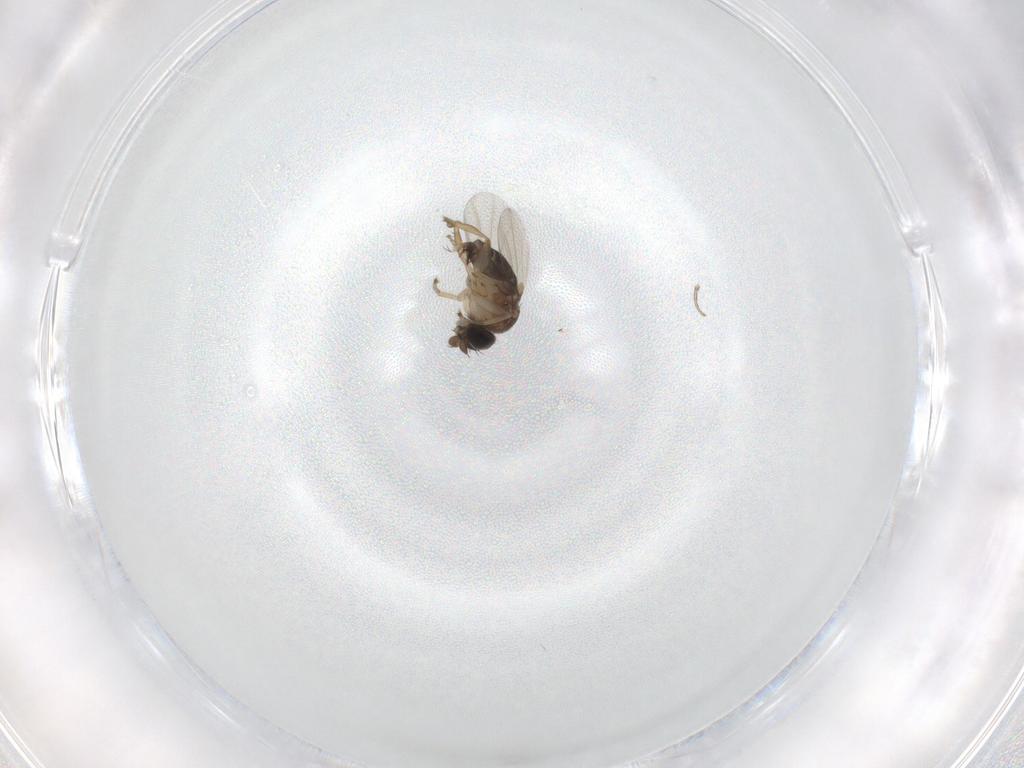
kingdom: Animalia
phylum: Arthropoda
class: Insecta
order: Diptera
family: Phoridae
